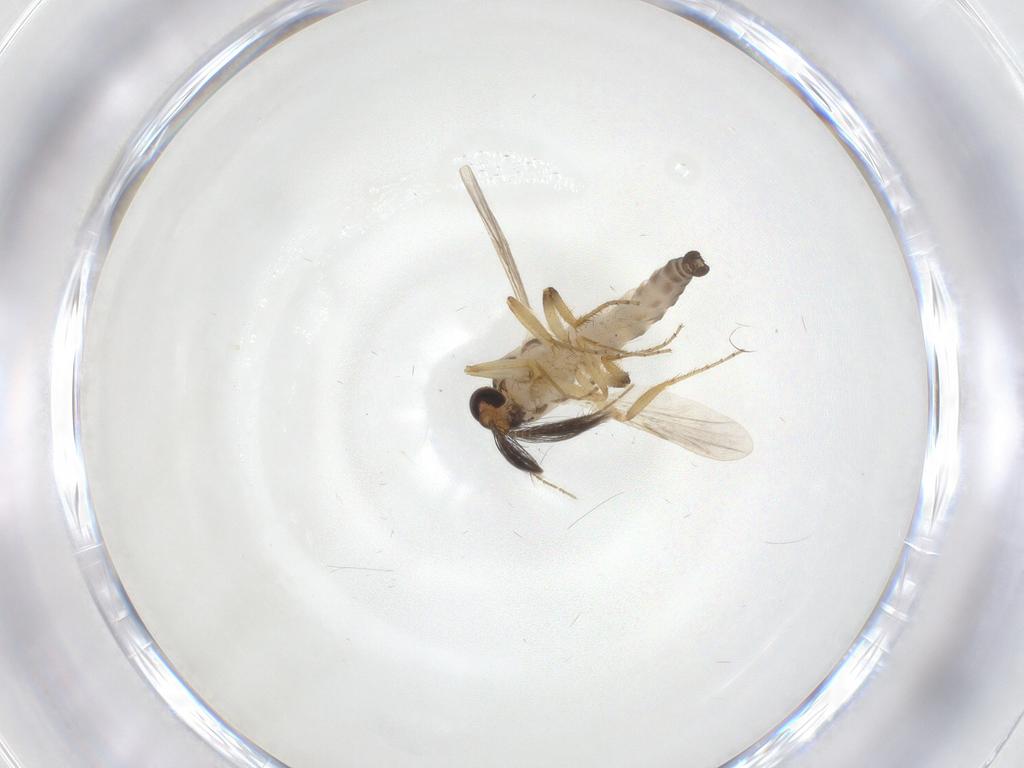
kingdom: Animalia
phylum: Arthropoda
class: Insecta
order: Diptera
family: Ceratopogonidae
